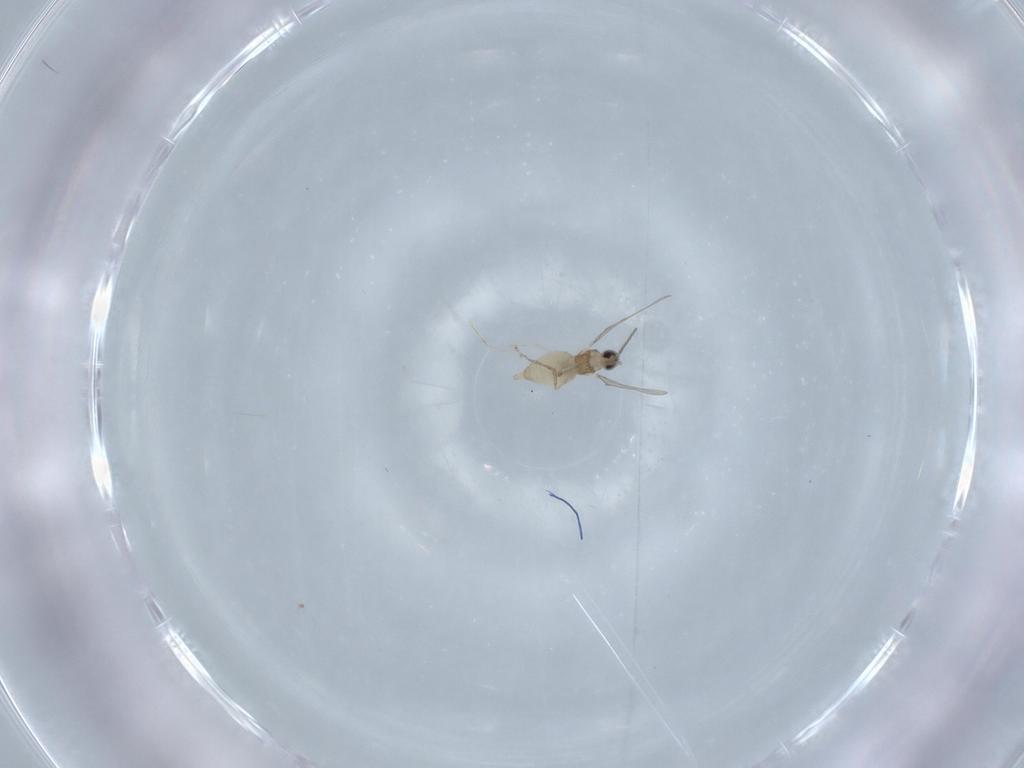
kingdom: Animalia
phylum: Arthropoda
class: Insecta
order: Diptera
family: Cecidomyiidae
